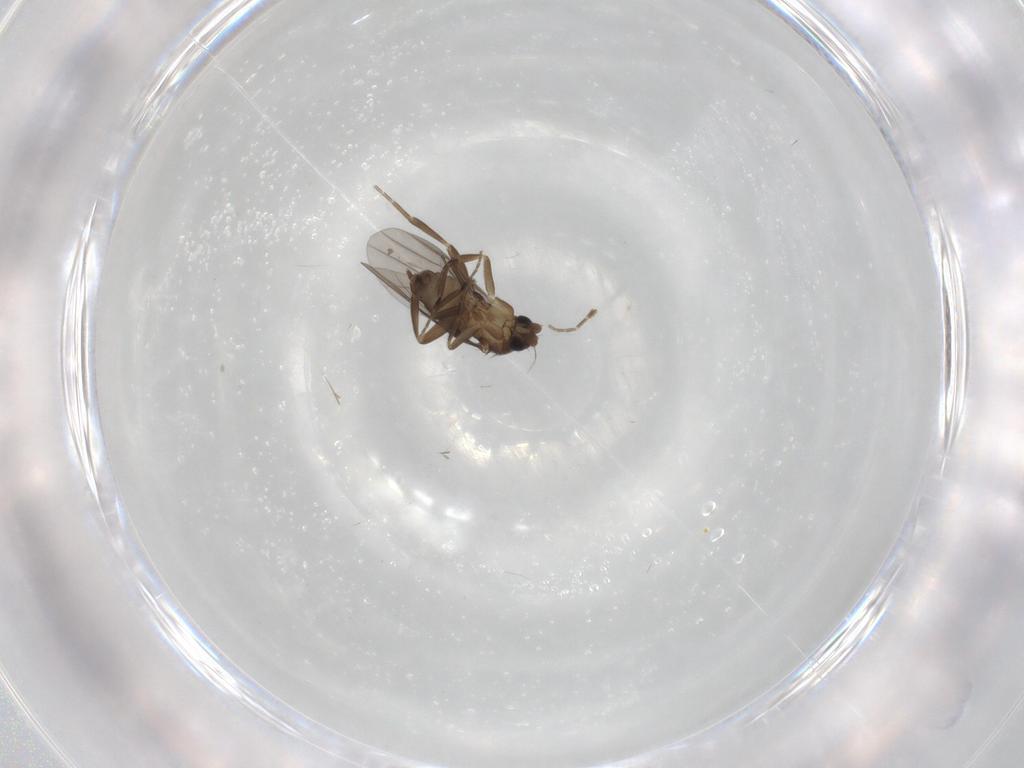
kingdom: Animalia
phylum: Arthropoda
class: Insecta
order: Diptera
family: Phoridae
